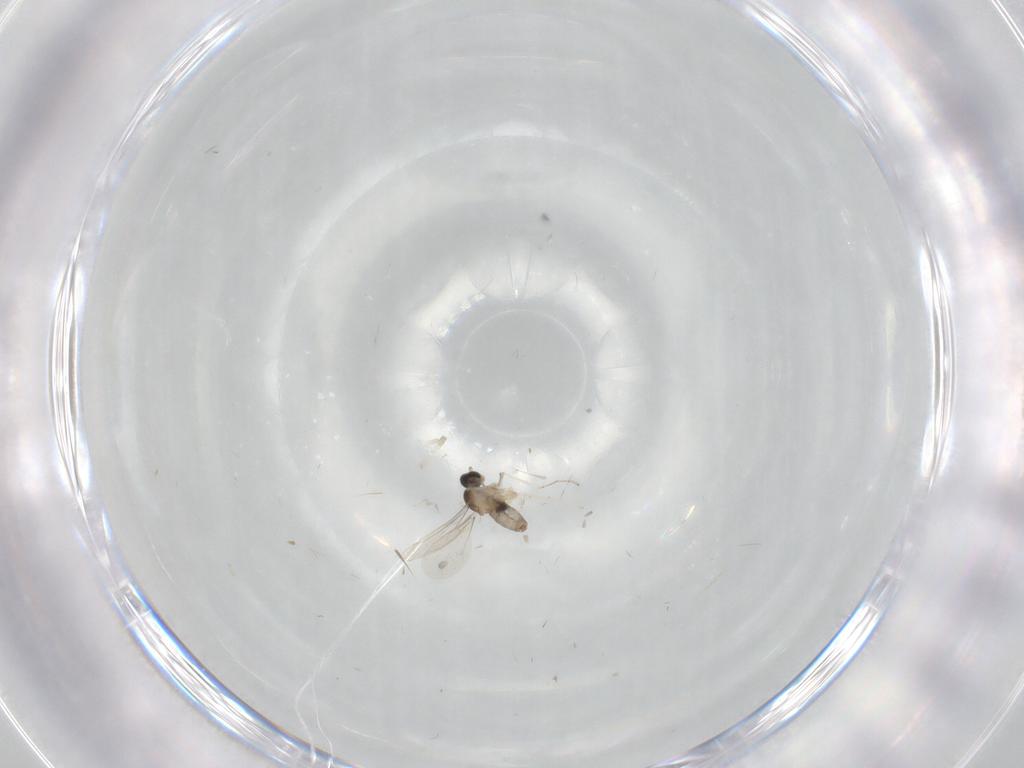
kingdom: Animalia
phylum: Arthropoda
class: Insecta
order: Diptera
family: Cecidomyiidae
